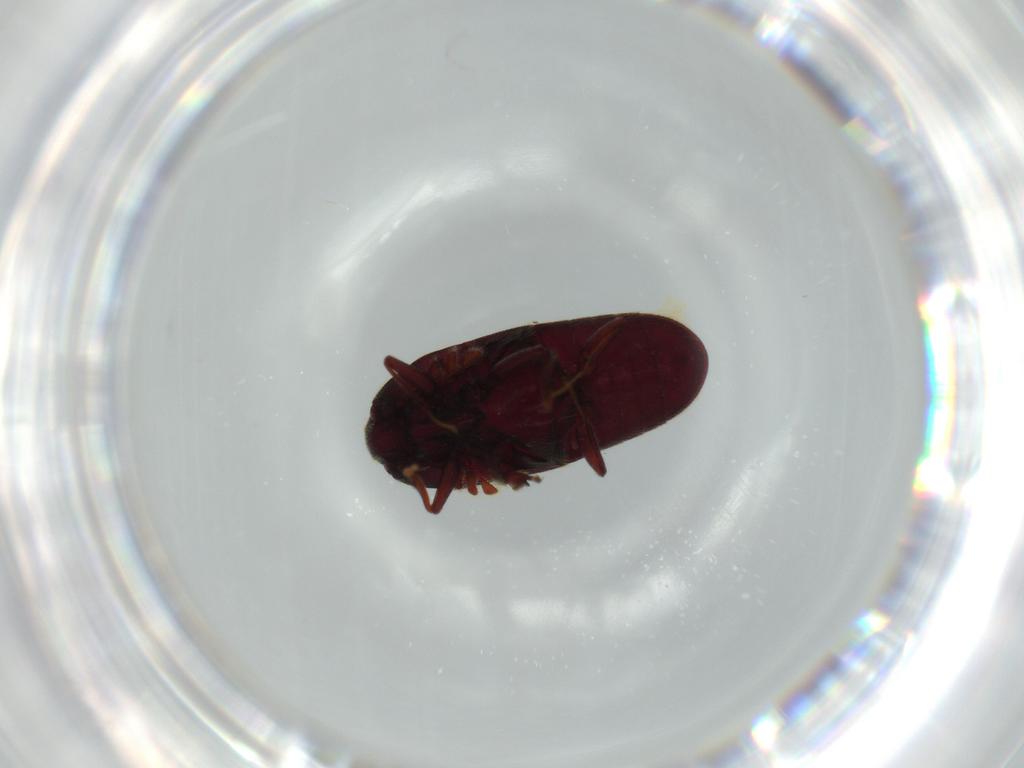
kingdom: Animalia
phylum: Arthropoda
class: Insecta
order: Coleoptera
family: Throscidae
